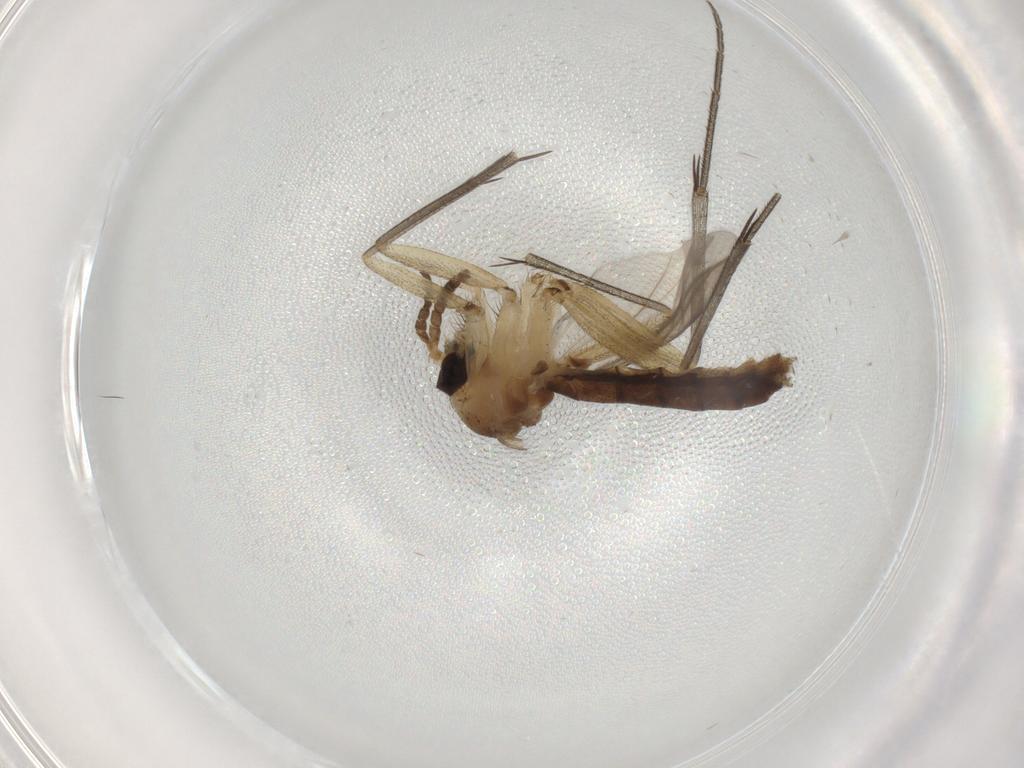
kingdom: Animalia
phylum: Arthropoda
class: Insecta
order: Diptera
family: Mycetophilidae
